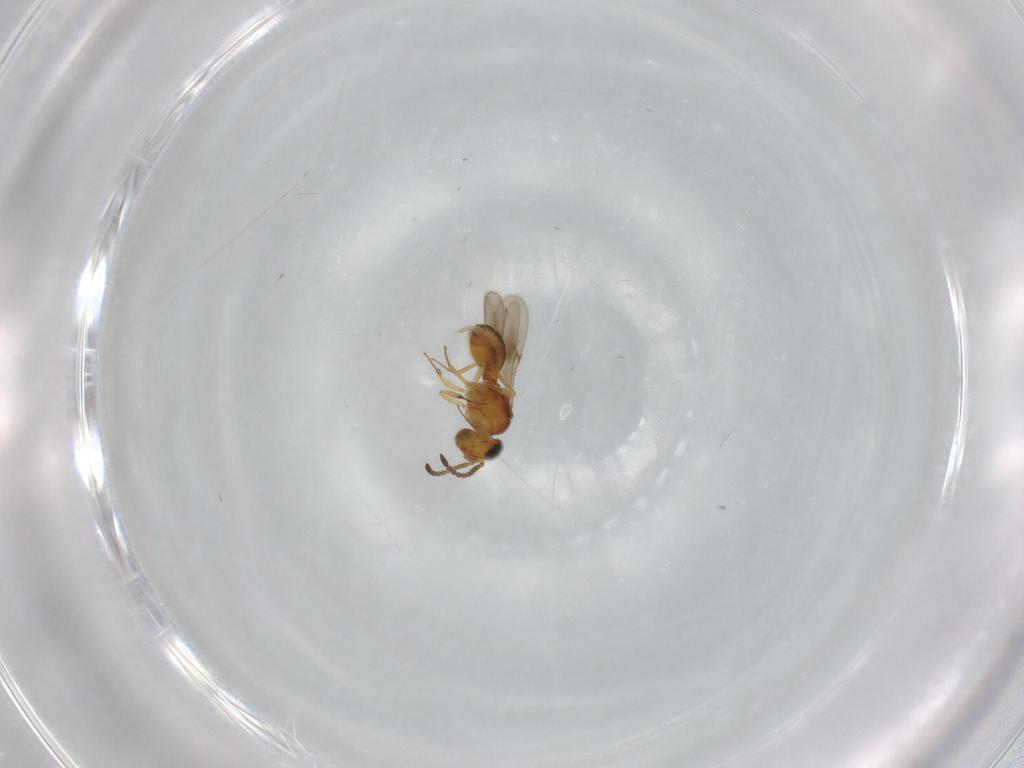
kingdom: Animalia
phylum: Arthropoda
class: Insecta
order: Hymenoptera
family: Scelionidae
